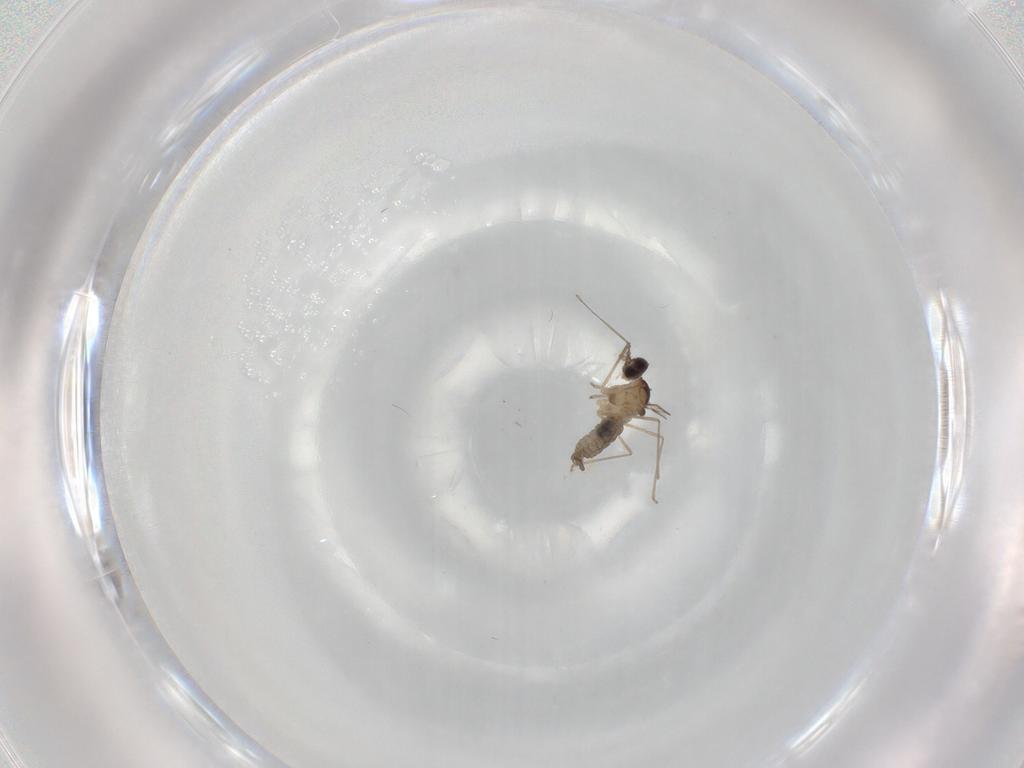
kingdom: Animalia
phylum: Arthropoda
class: Insecta
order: Diptera
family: Cecidomyiidae
